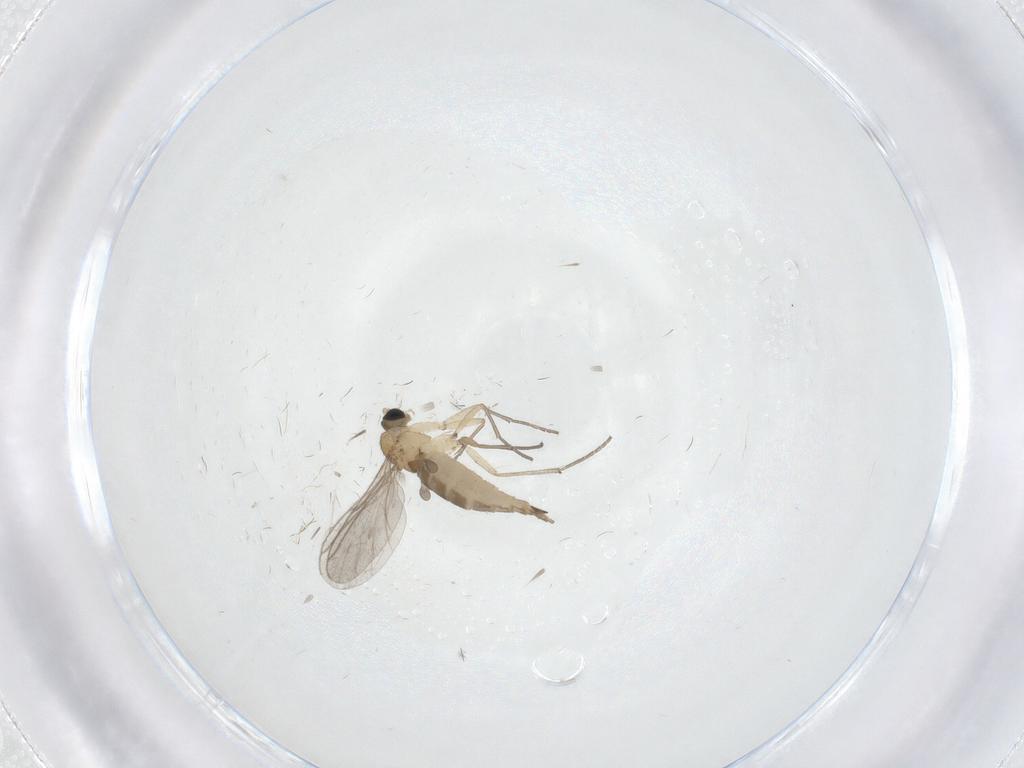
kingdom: Animalia
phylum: Arthropoda
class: Insecta
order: Diptera
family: Sciaridae
